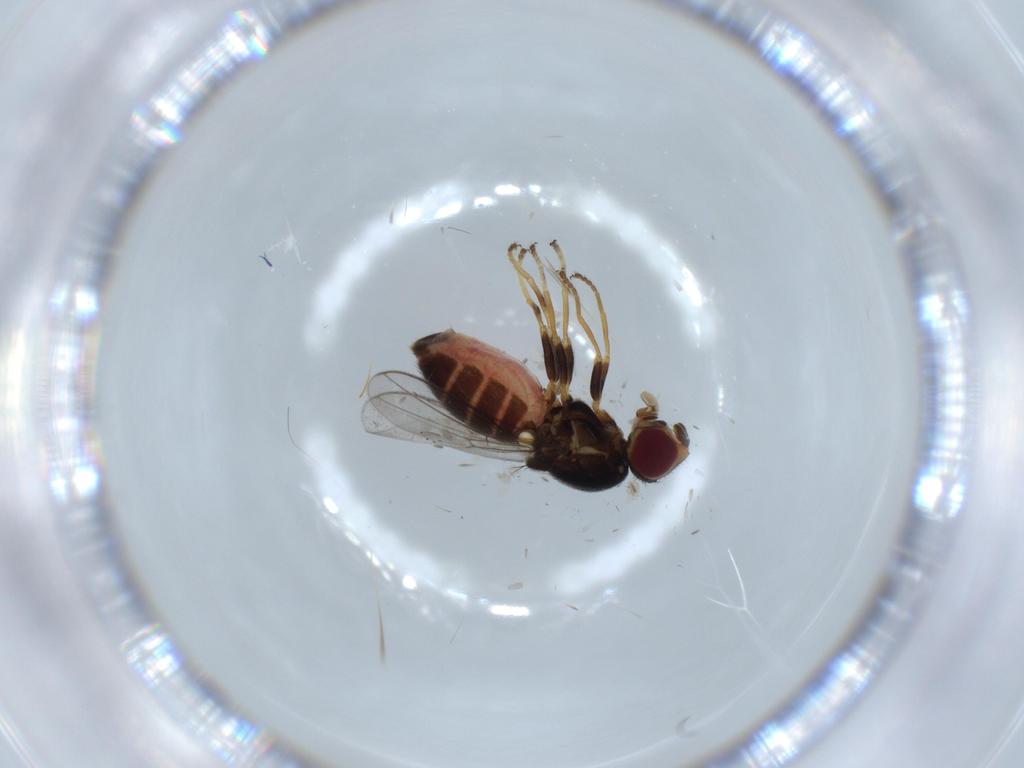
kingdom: Animalia
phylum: Arthropoda
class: Insecta
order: Diptera
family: Chloropidae
